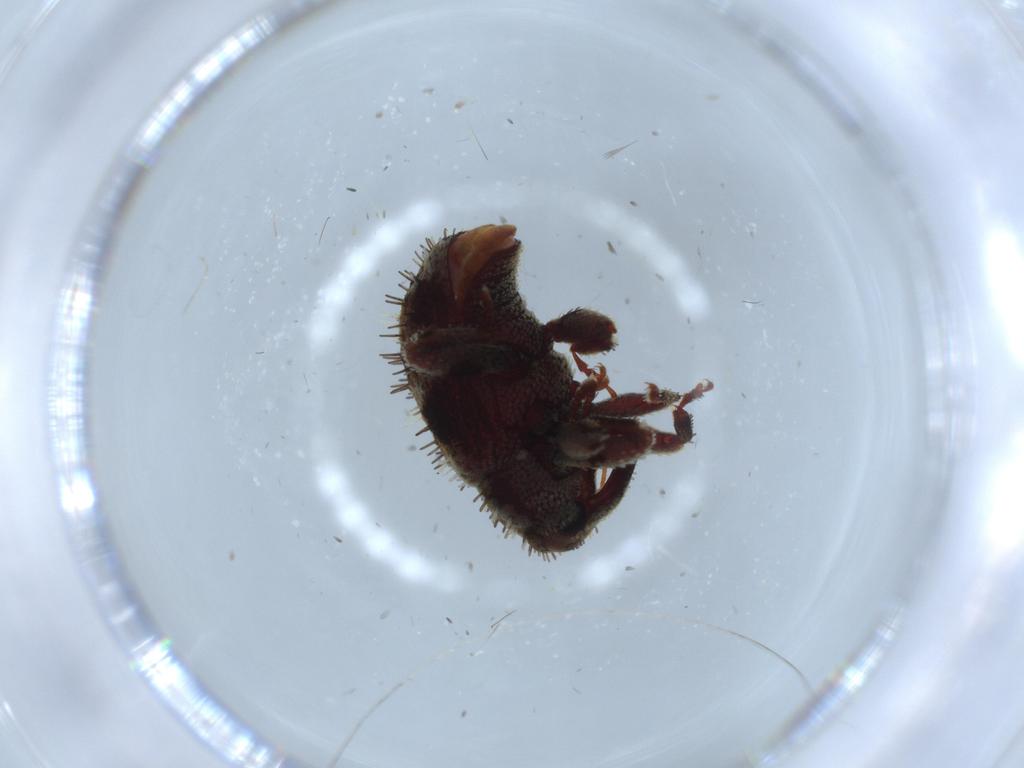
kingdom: Animalia
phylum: Arthropoda
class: Insecta
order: Coleoptera
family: Curculionidae
